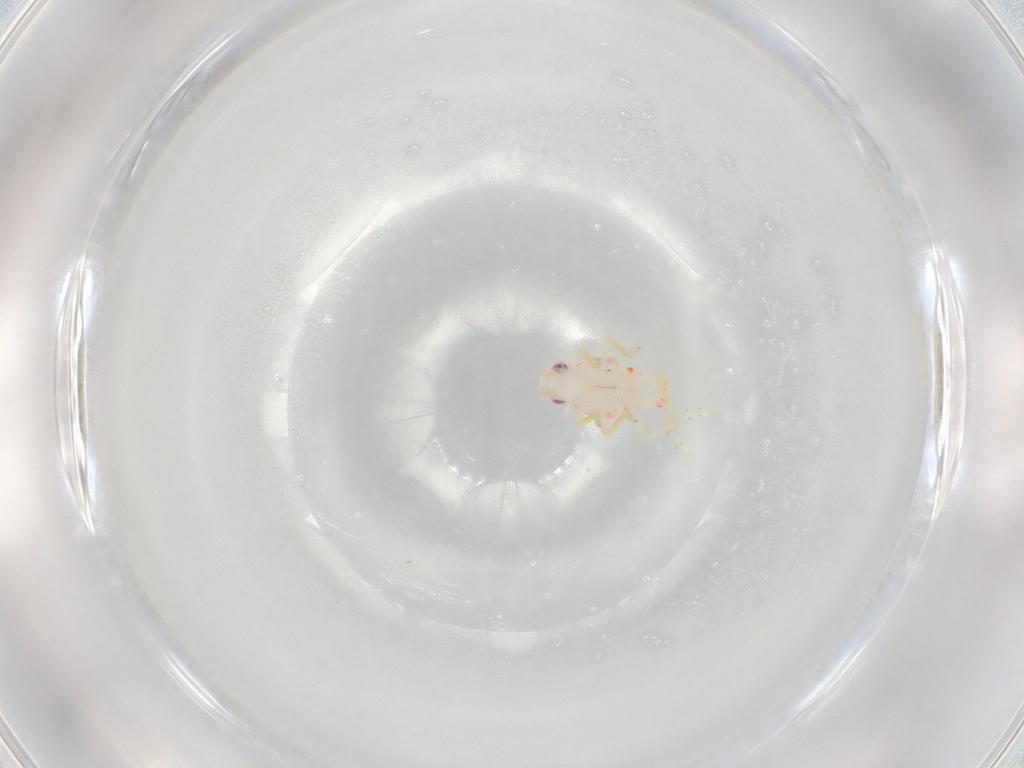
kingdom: Animalia
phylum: Arthropoda
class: Insecta
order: Hemiptera
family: Tropiduchidae
